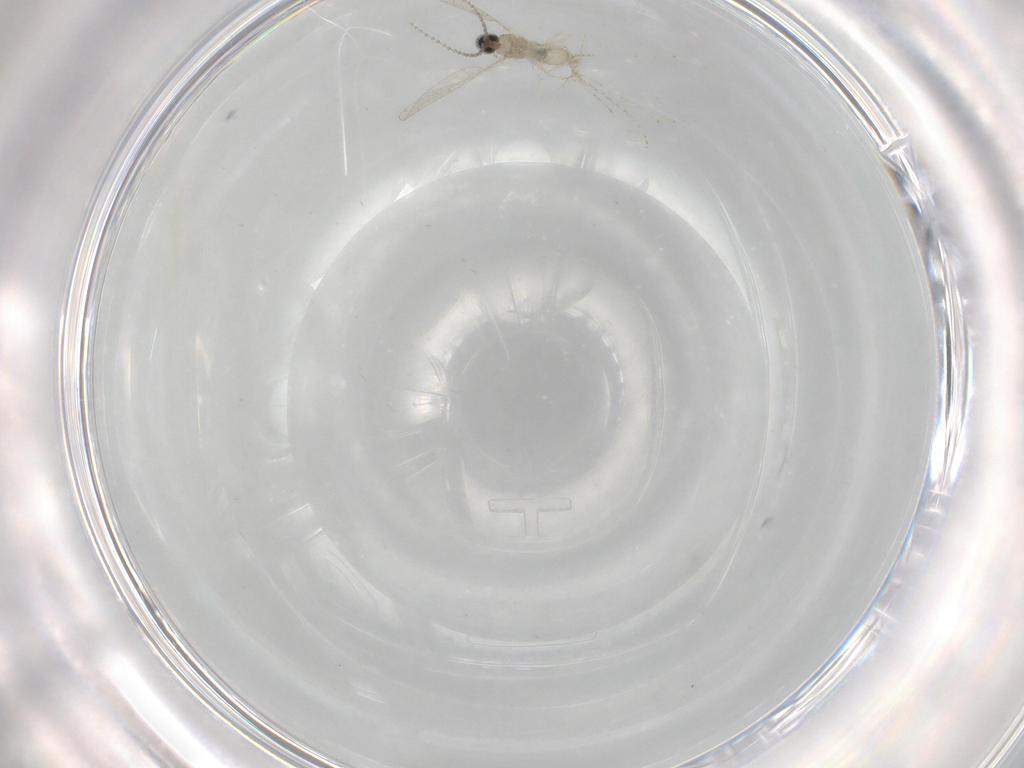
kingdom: Animalia
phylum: Arthropoda
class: Insecta
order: Diptera
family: Cecidomyiidae
